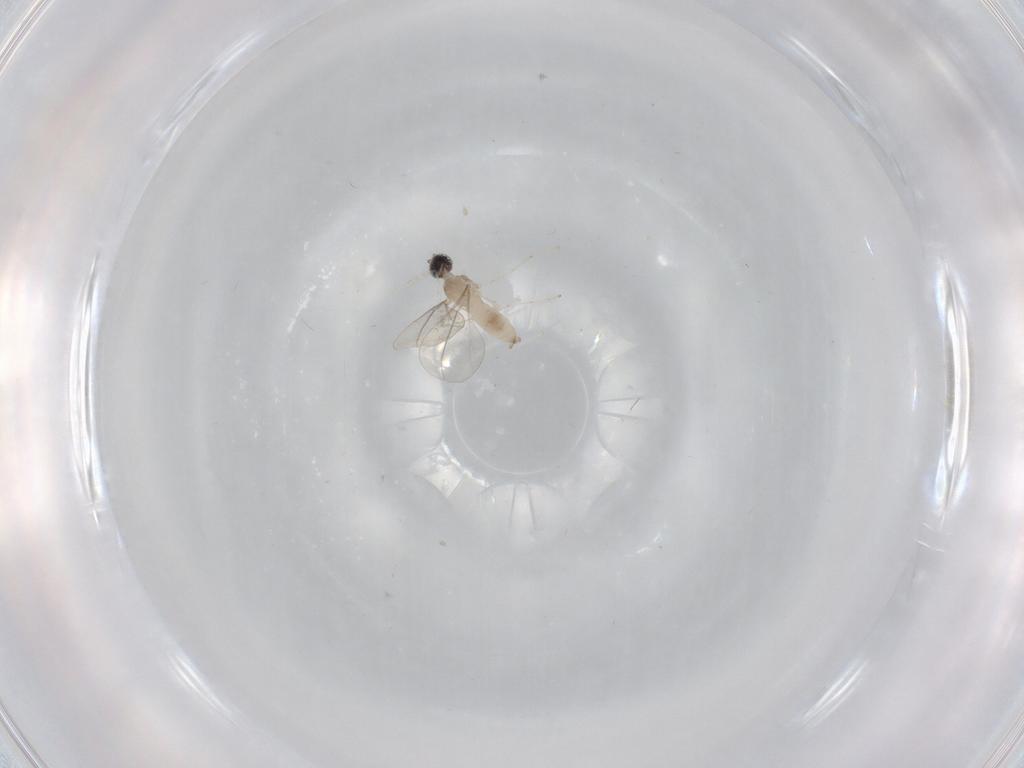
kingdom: Animalia
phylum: Arthropoda
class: Insecta
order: Diptera
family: Cecidomyiidae
